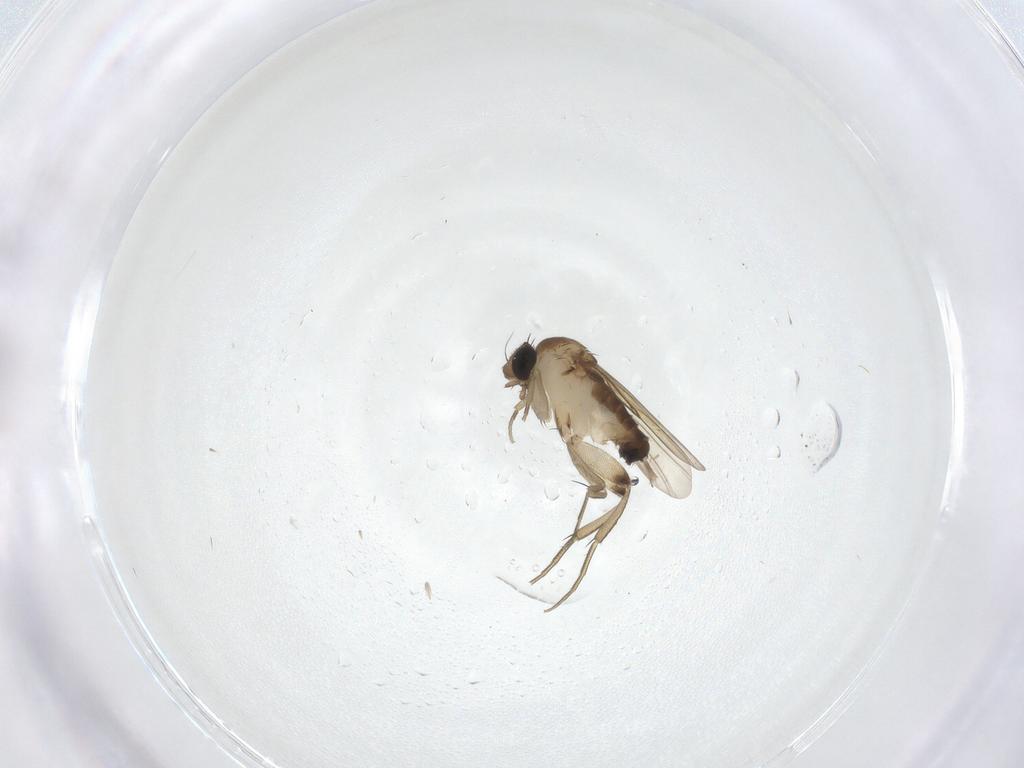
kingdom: Animalia
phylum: Arthropoda
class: Insecta
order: Diptera
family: Phoridae
